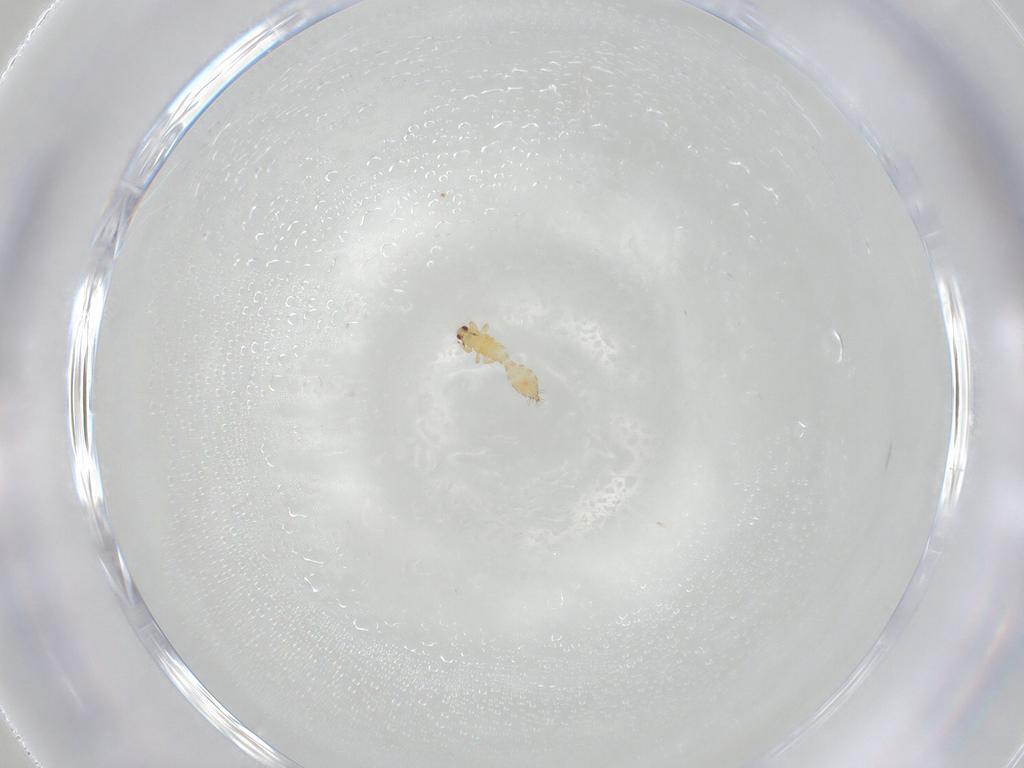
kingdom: Animalia
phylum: Arthropoda
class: Insecta
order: Thysanoptera
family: Thripidae
